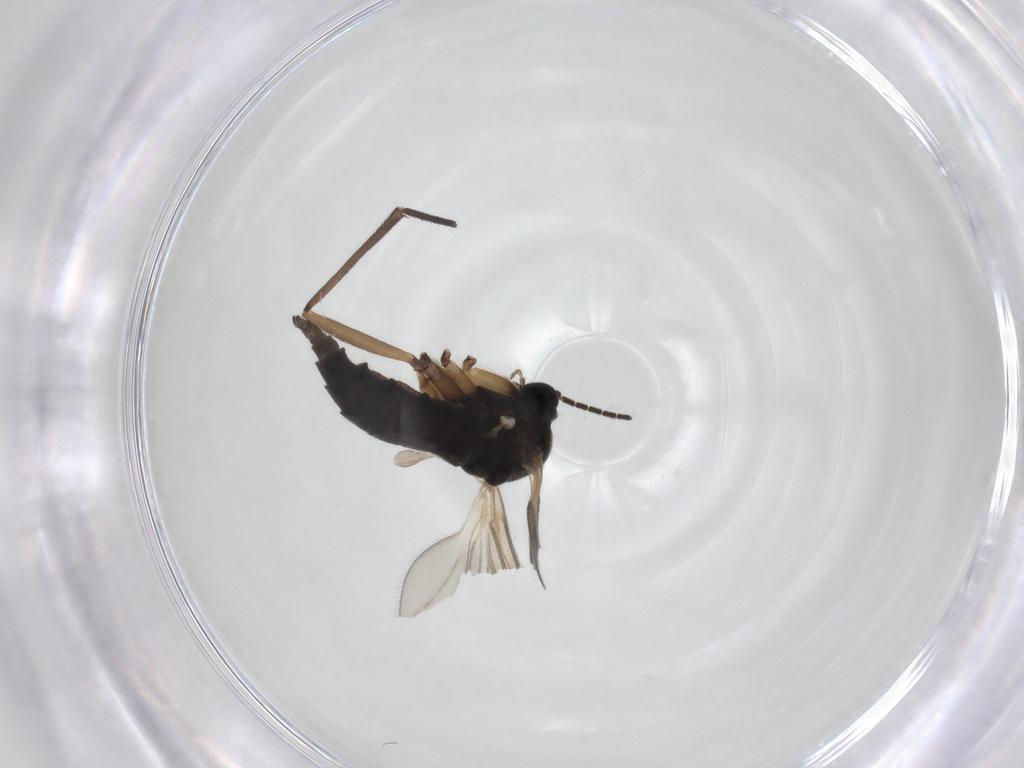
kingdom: Animalia
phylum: Arthropoda
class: Insecta
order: Diptera
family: Sciaridae
